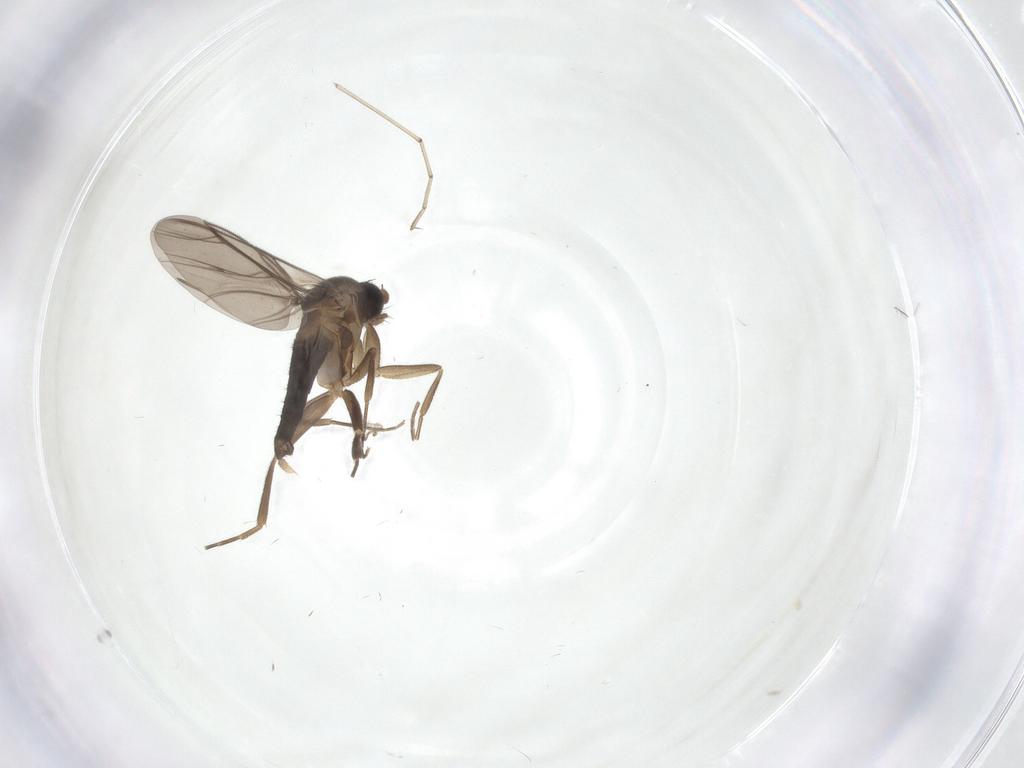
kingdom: Animalia
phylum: Arthropoda
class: Insecta
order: Diptera
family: Cecidomyiidae
